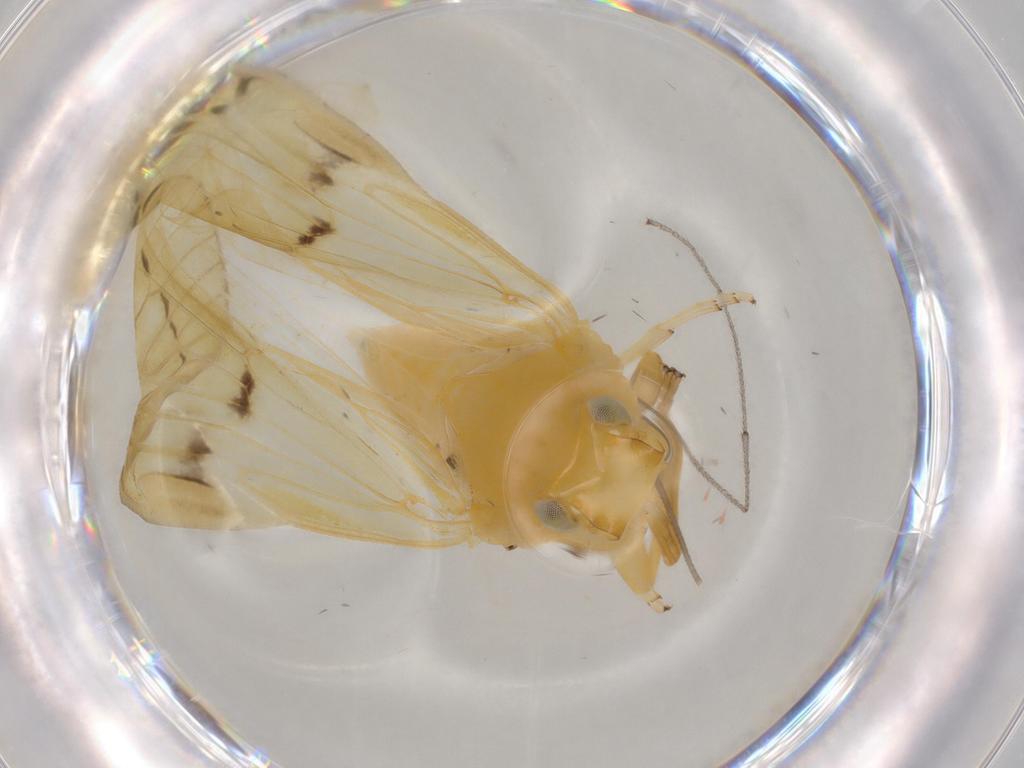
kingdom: Animalia
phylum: Arthropoda
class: Insecta
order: Hemiptera
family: Cixiidae
